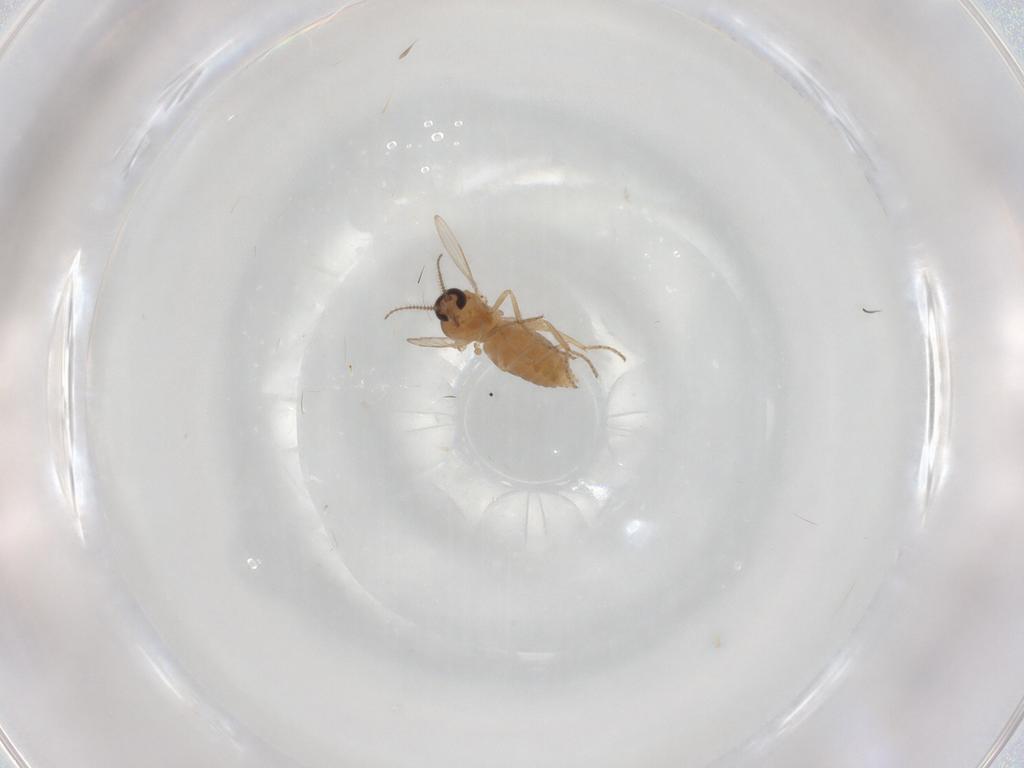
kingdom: Animalia
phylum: Arthropoda
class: Insecta
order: Diptera
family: Ceratopogonidae
